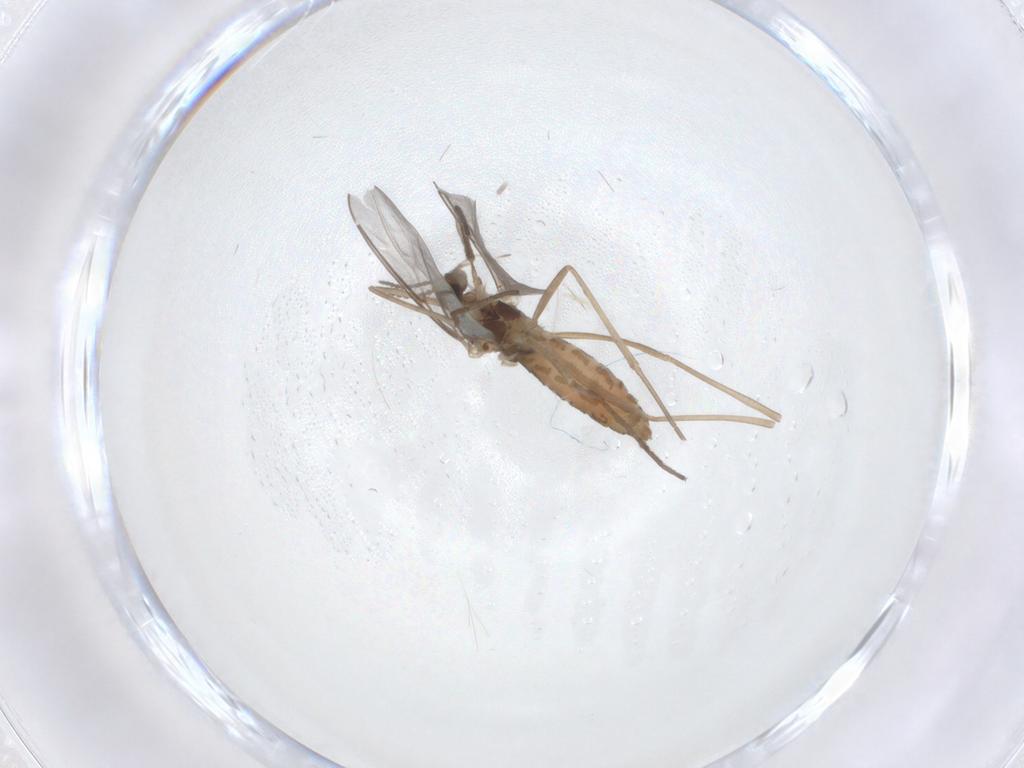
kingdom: Animalia
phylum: Arthropoda
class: Insecta
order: Diptera
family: Cecidomyiidae
